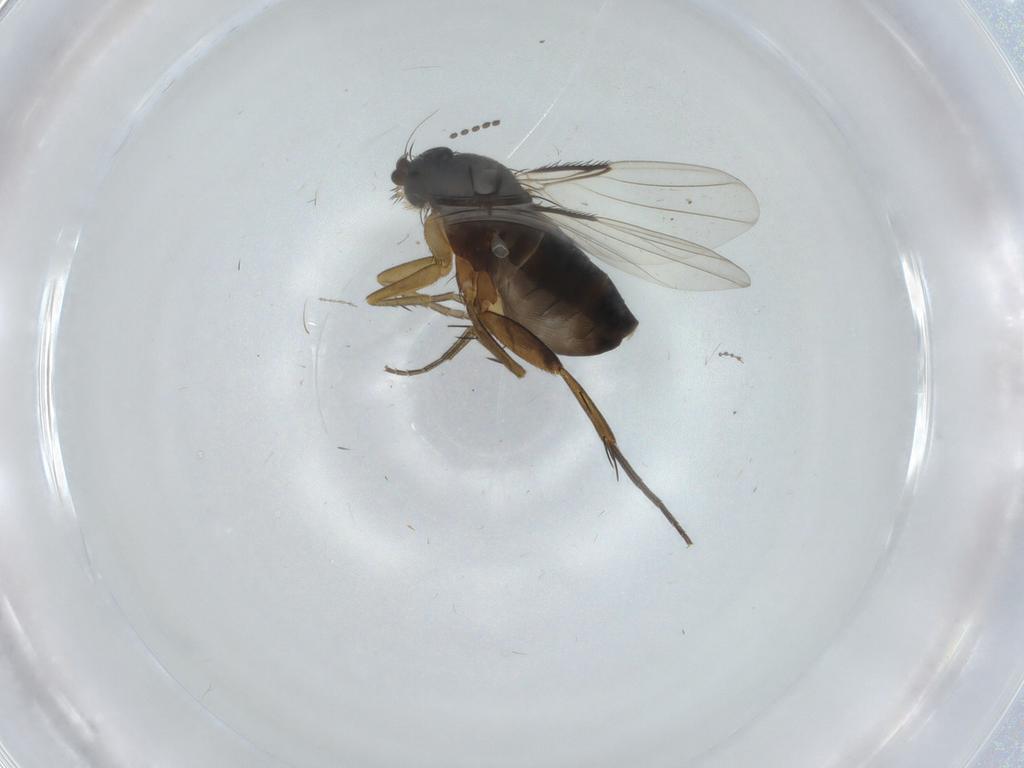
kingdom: Animalia
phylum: Arthropoda
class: Insecta
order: Diptera
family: Phoridae
